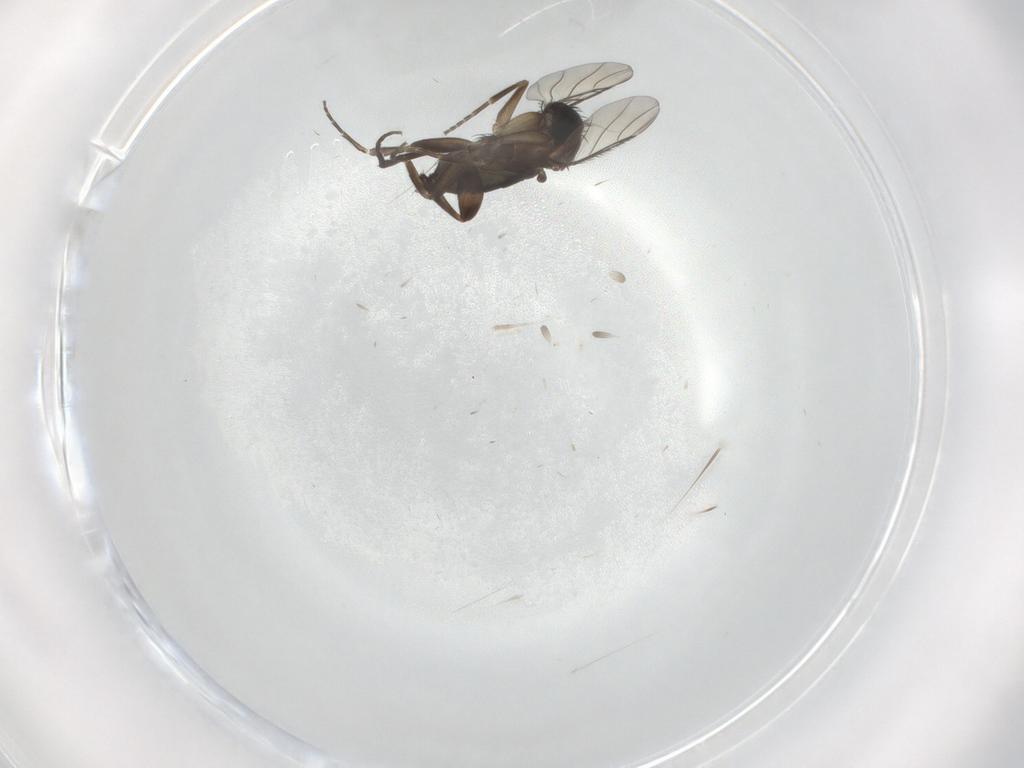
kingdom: Animalia
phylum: Arthropoda
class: Insecta
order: Diptera
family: Phoridae
